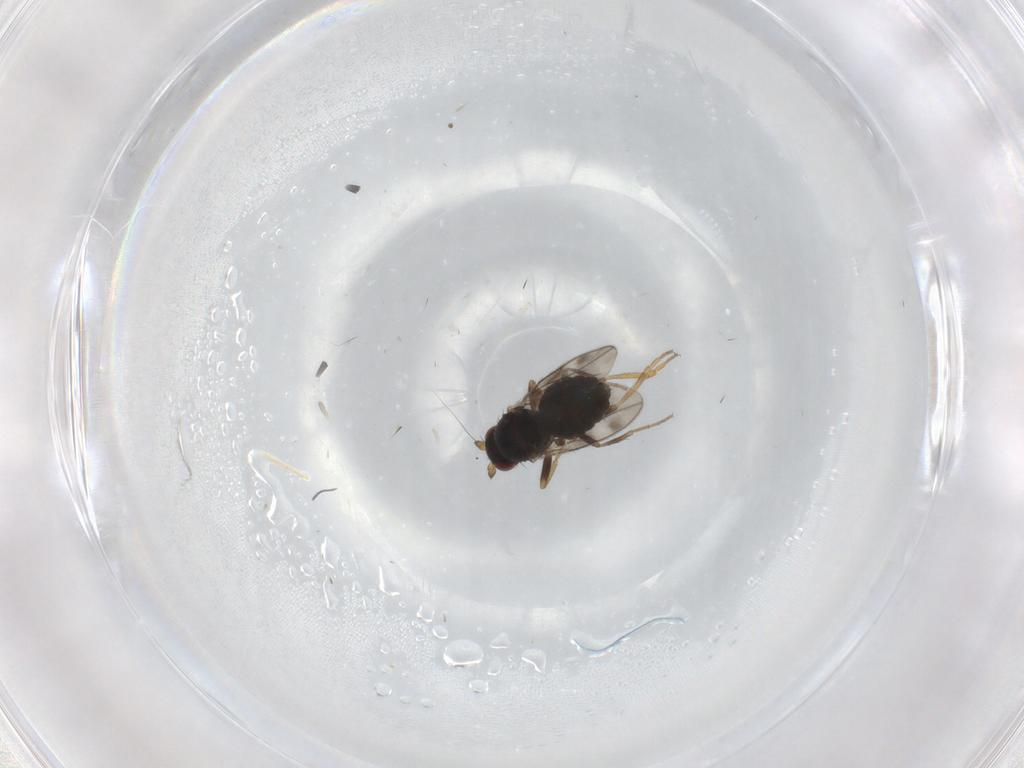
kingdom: Animalia
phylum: Arthropoda
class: Insecta
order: Diptera
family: Sphaeroceridae
